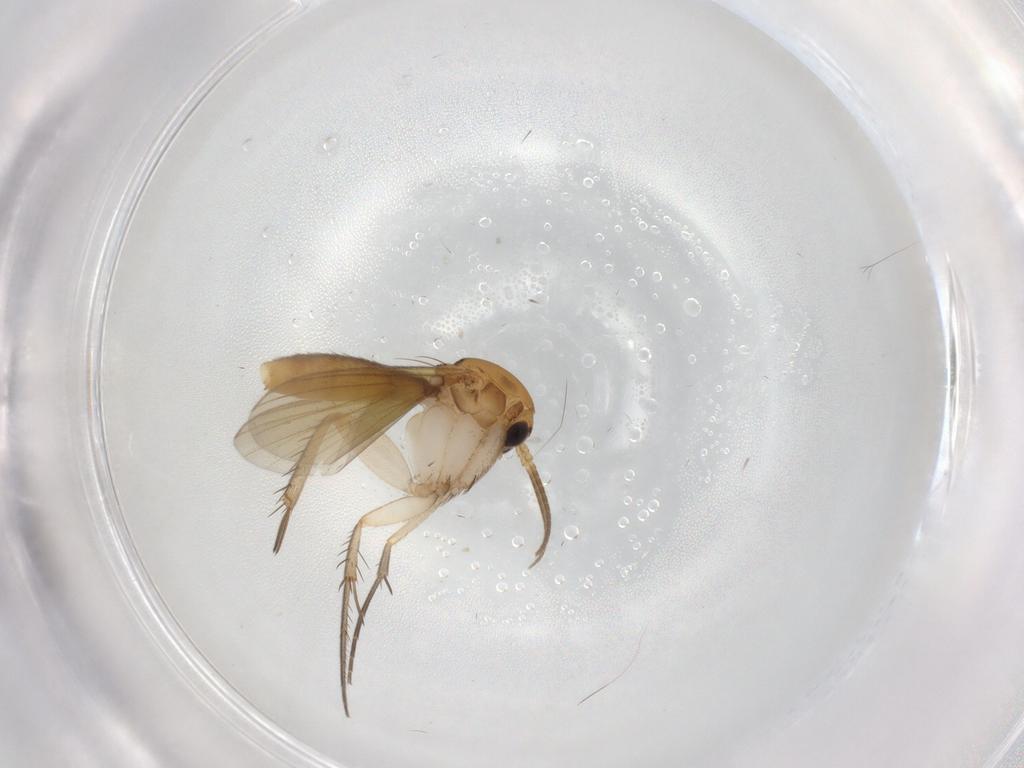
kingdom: Animalia
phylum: Arthropoda
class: Insecta
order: Diptera
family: Mycetophilidae
